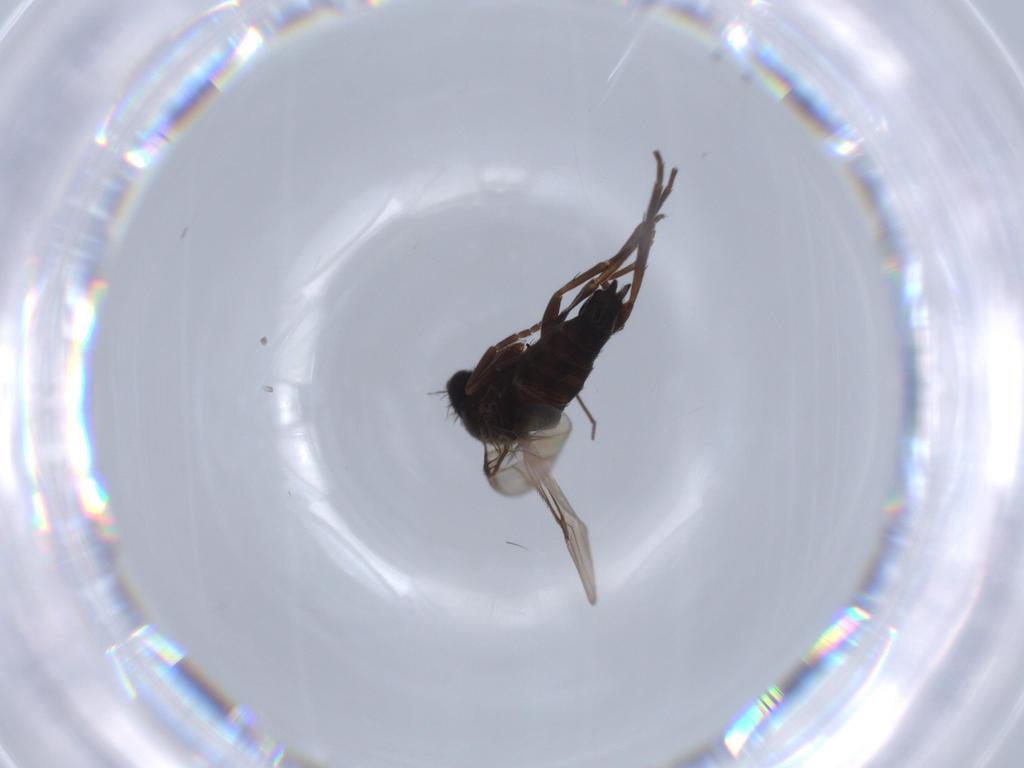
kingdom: Animalia
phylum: Arthropoda
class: Insecta
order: Diptera
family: Phoridae
